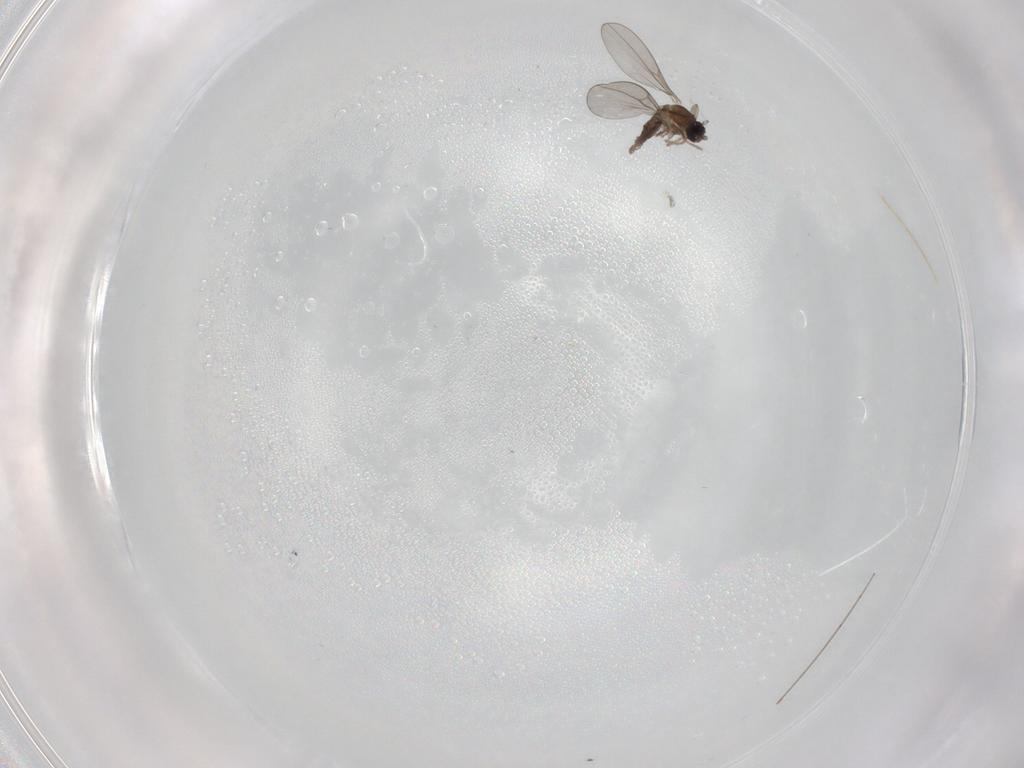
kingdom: Animalia
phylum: Arthropoda
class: Insecta
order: Diptera
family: Cecidomyiidae
